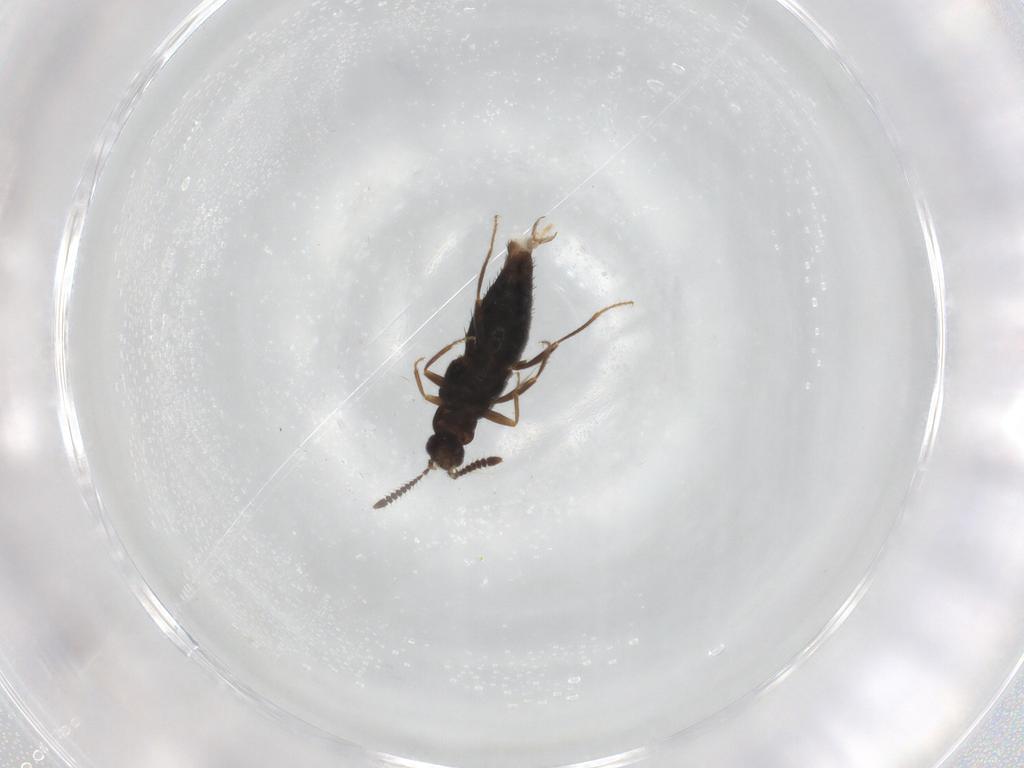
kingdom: Animalia
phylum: Arthropoda
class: Insecta
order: Coleoptera
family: Staphylinidae
